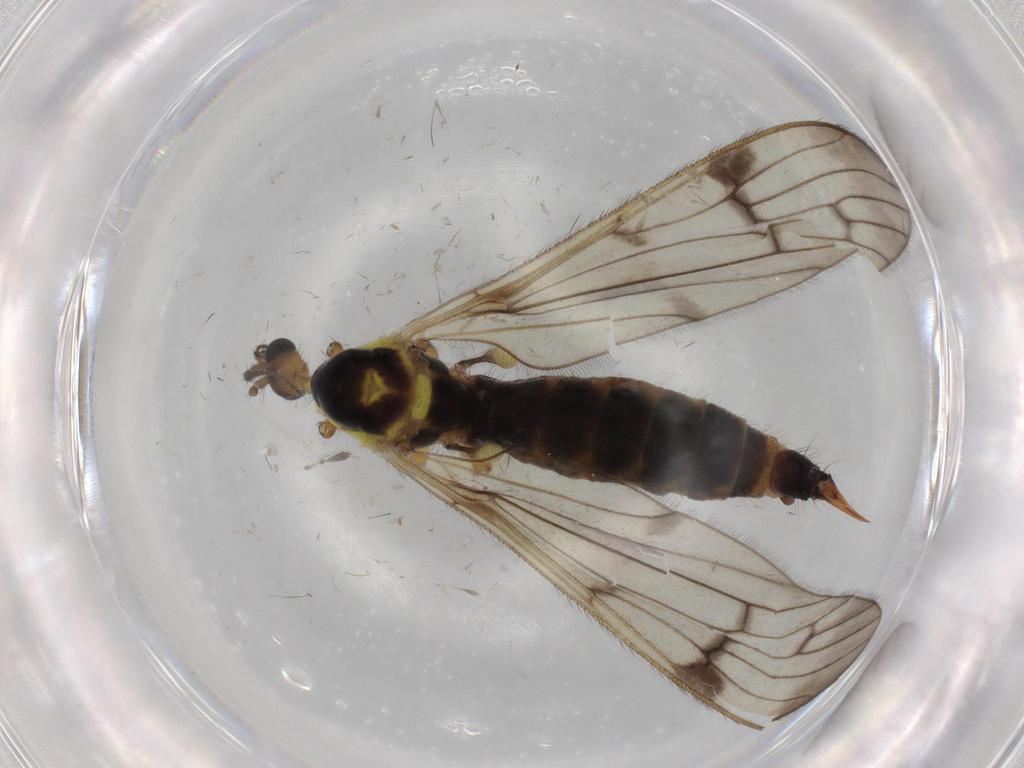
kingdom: Animalia
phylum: Arthropoda
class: Insecta
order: Diptera
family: Limoniidae
